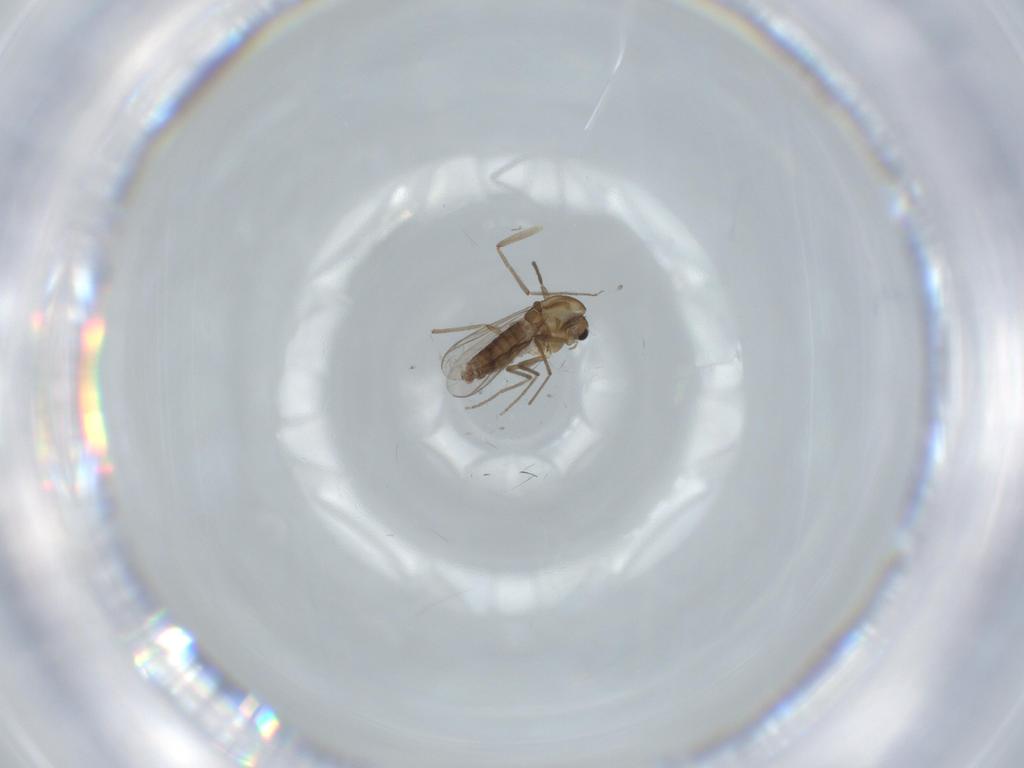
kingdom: Animalia
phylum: Arthropoda
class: Insecta
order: Diptera
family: Chironomidae
